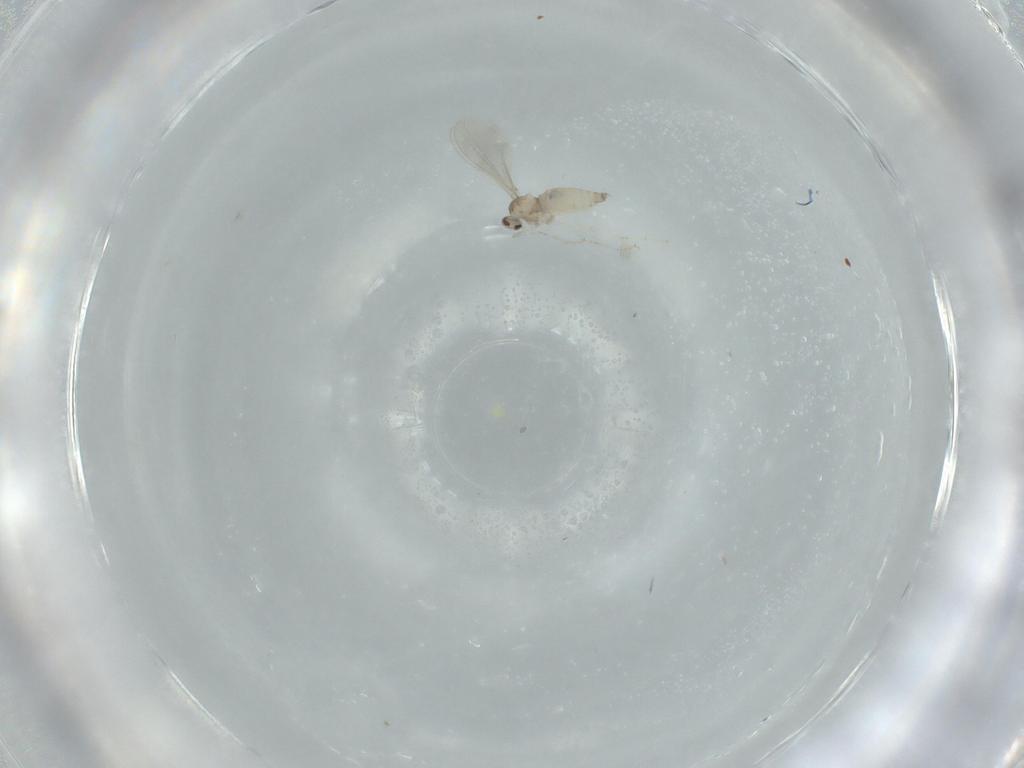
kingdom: Animalia
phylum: Arthropoda
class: Insecta
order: Diptera
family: Cecidomyiidae
